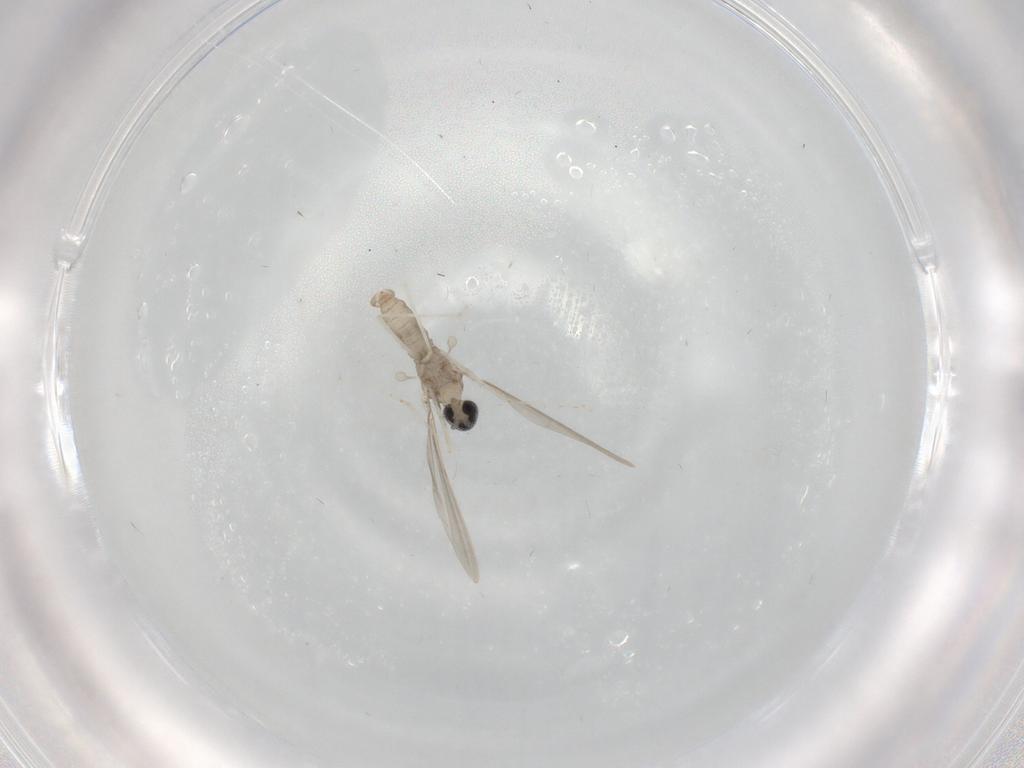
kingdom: Animalia
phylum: Arthropoda
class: Insecta
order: Diptera
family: Cecidomyiidae
